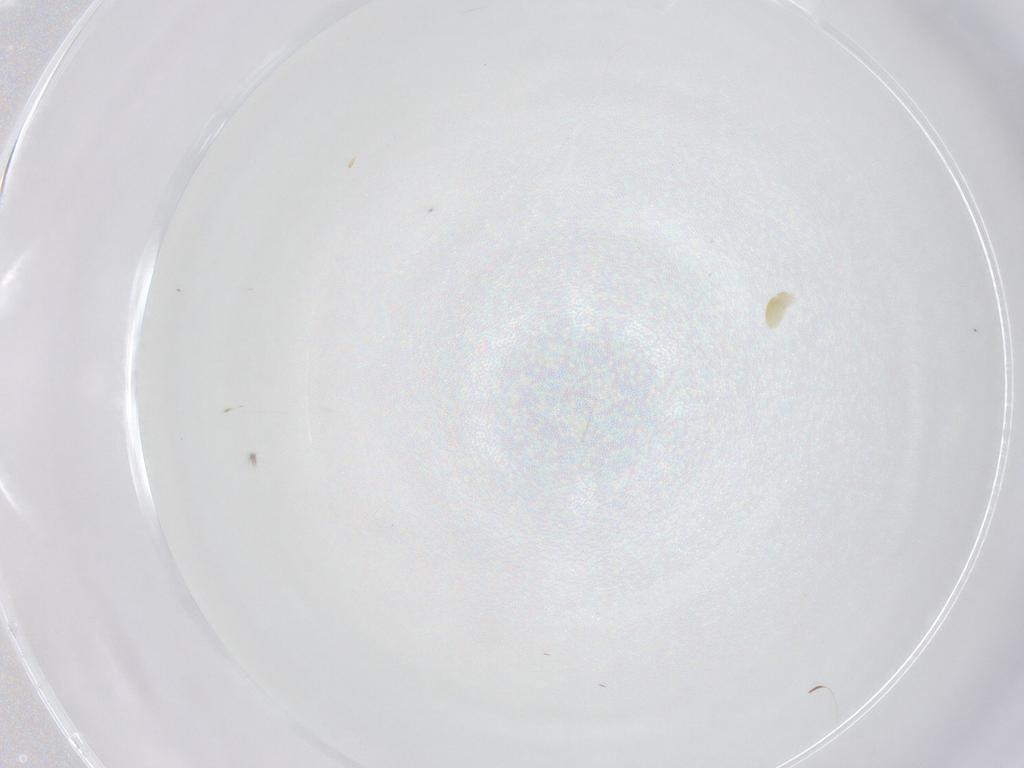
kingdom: Animalia
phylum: Arthropoda
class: Arachnida
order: Trombidiformes
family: Eupodidae
